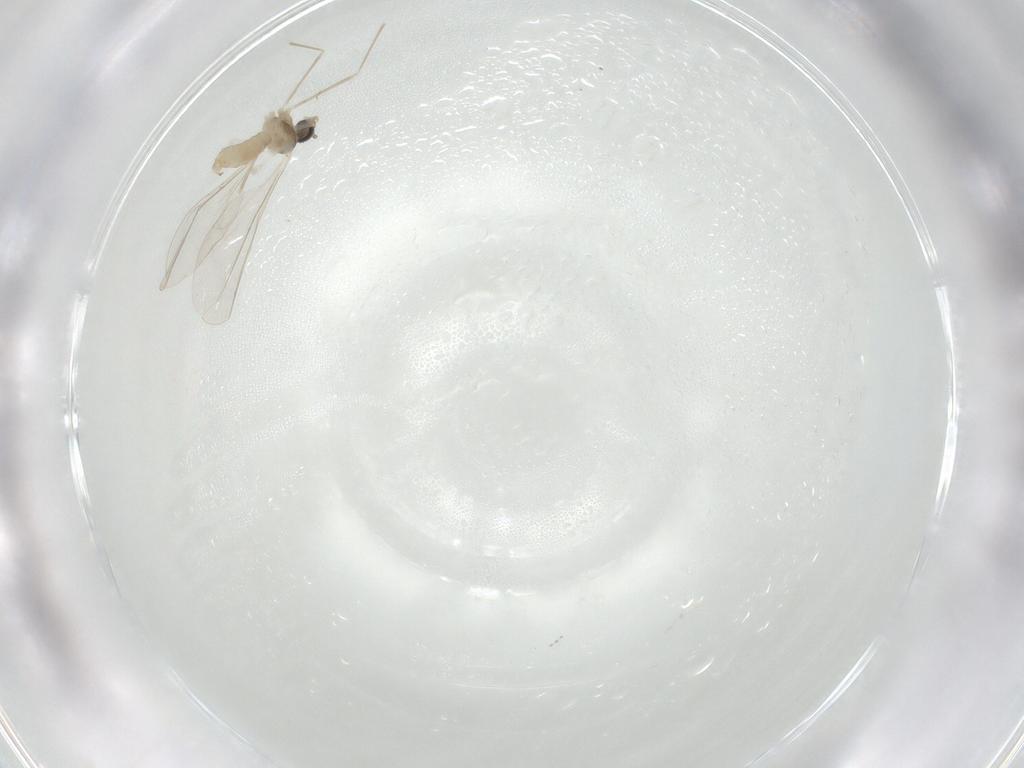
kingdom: Animalia
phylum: Arthropoda
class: Insecta
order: Diptera
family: Cecidomyiidae
